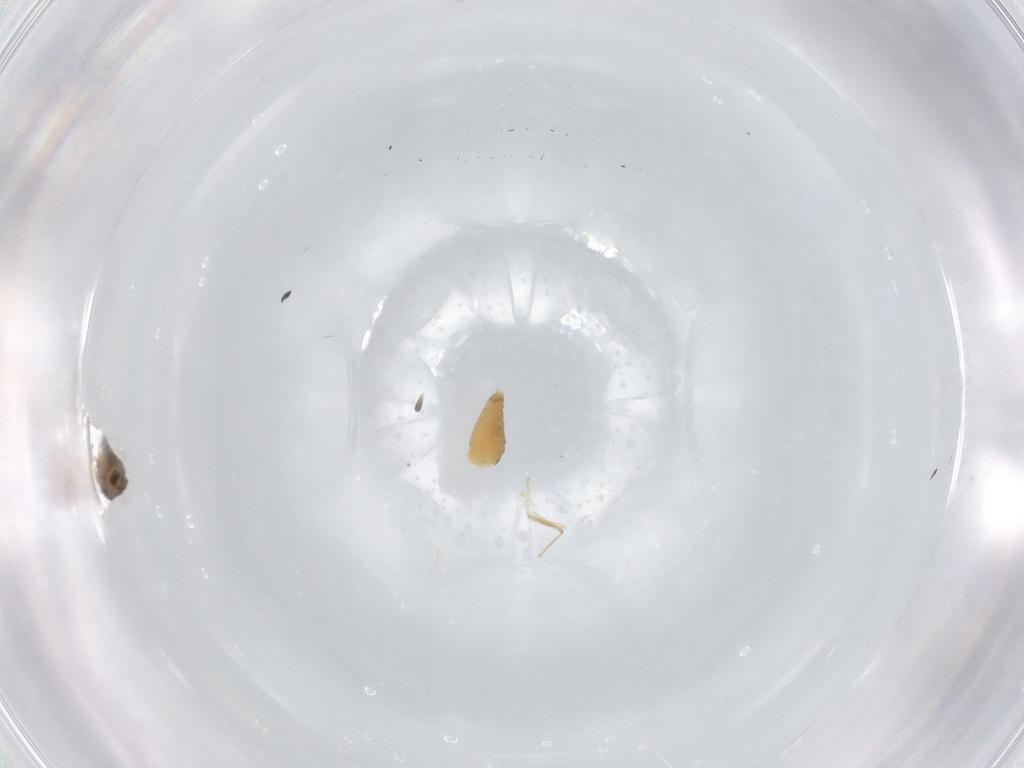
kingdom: Animalia
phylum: Arthropoda
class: Insecta
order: Diptera
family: Chironomidae
